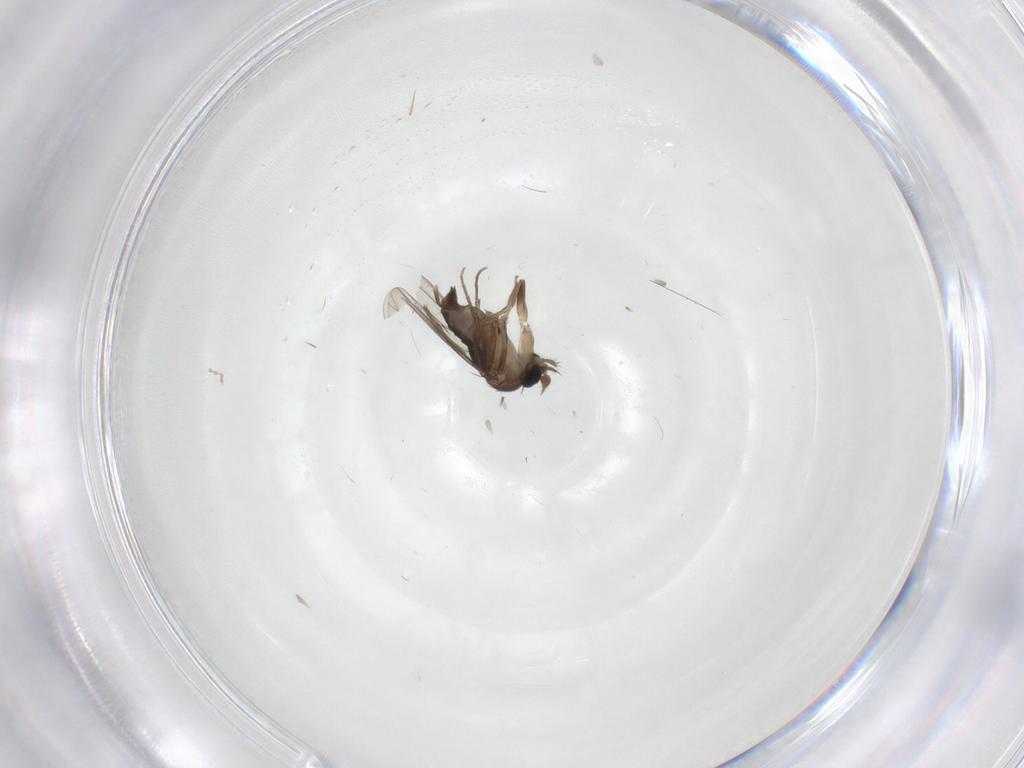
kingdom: Animalia
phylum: Arthropoda
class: Insecta
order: Diptera
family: Phoridae
